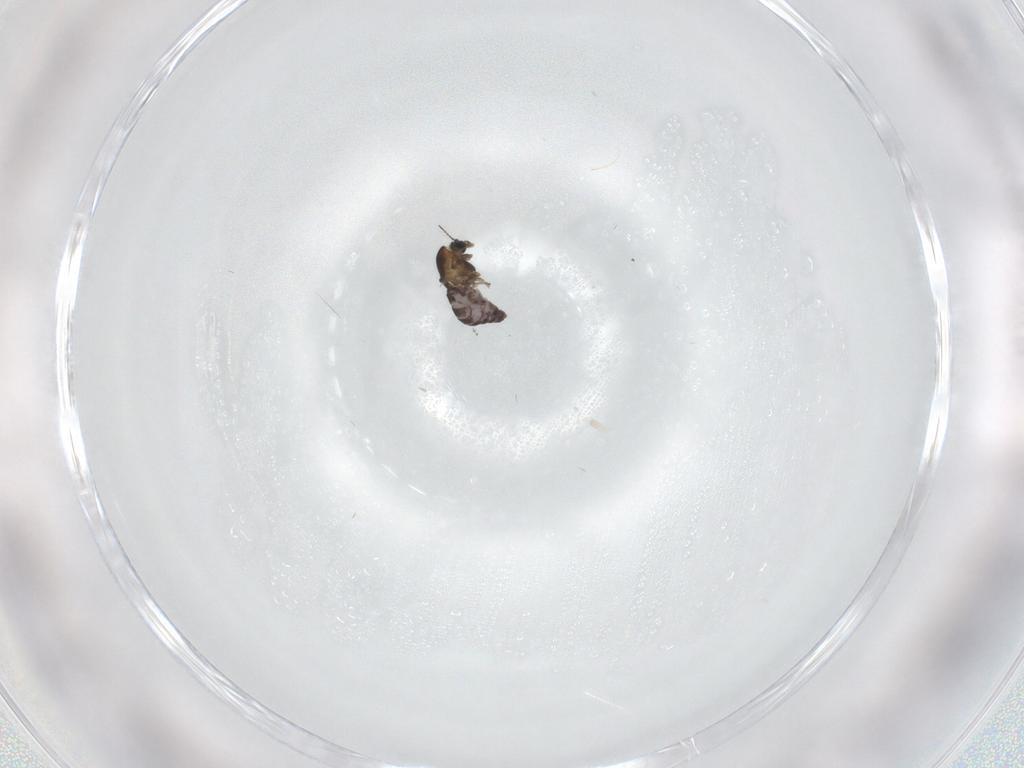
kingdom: Animalia
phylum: Arthropoda
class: Insecta
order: Diptera
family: Chironomidae
